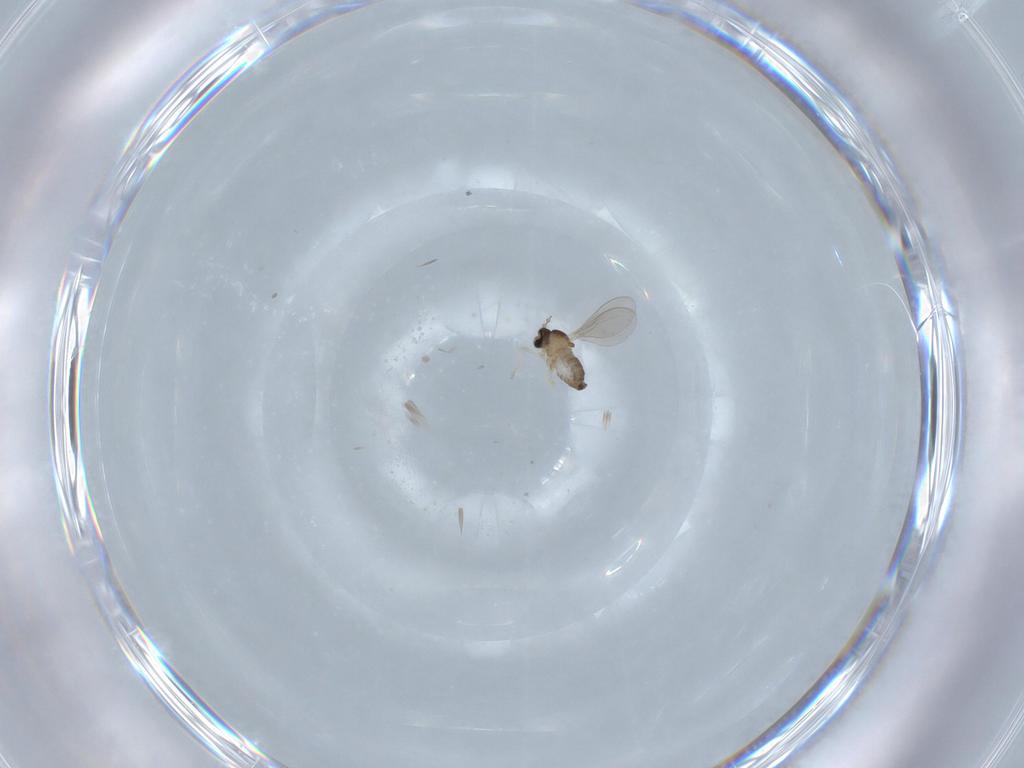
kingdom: Animalia
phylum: Arthropoda
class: Insecta
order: Diptera
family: Cecidomyiidae
